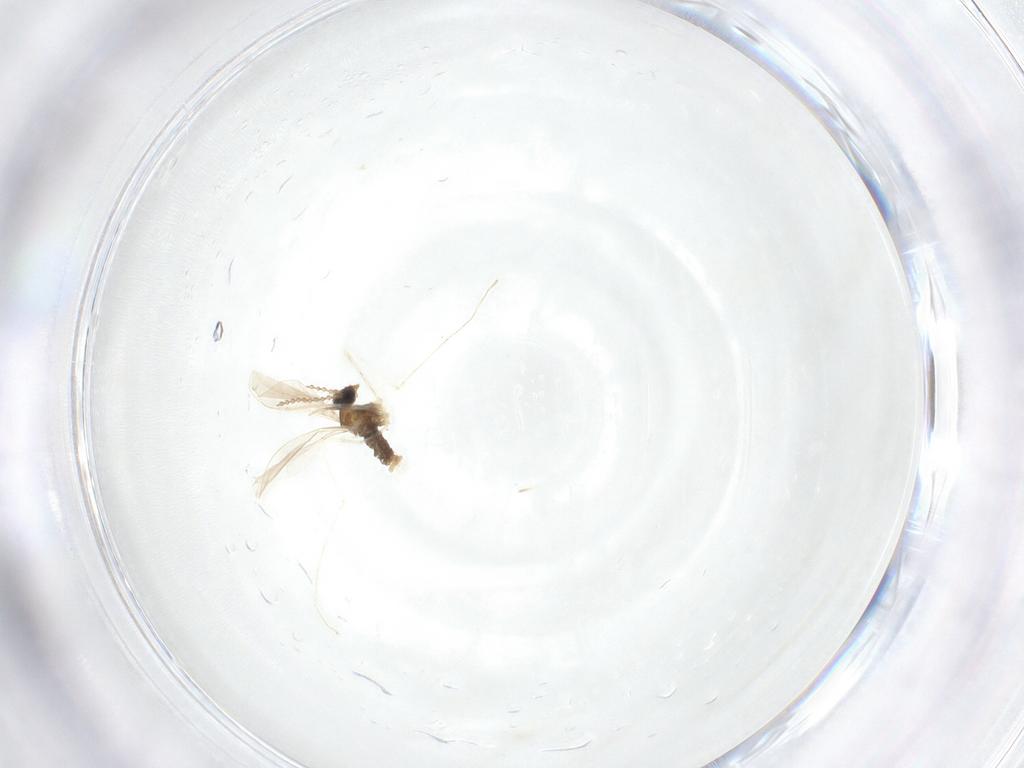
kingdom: Animalia
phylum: Arthropoda
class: Insecta
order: Diptera
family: Cecidomyiidae
